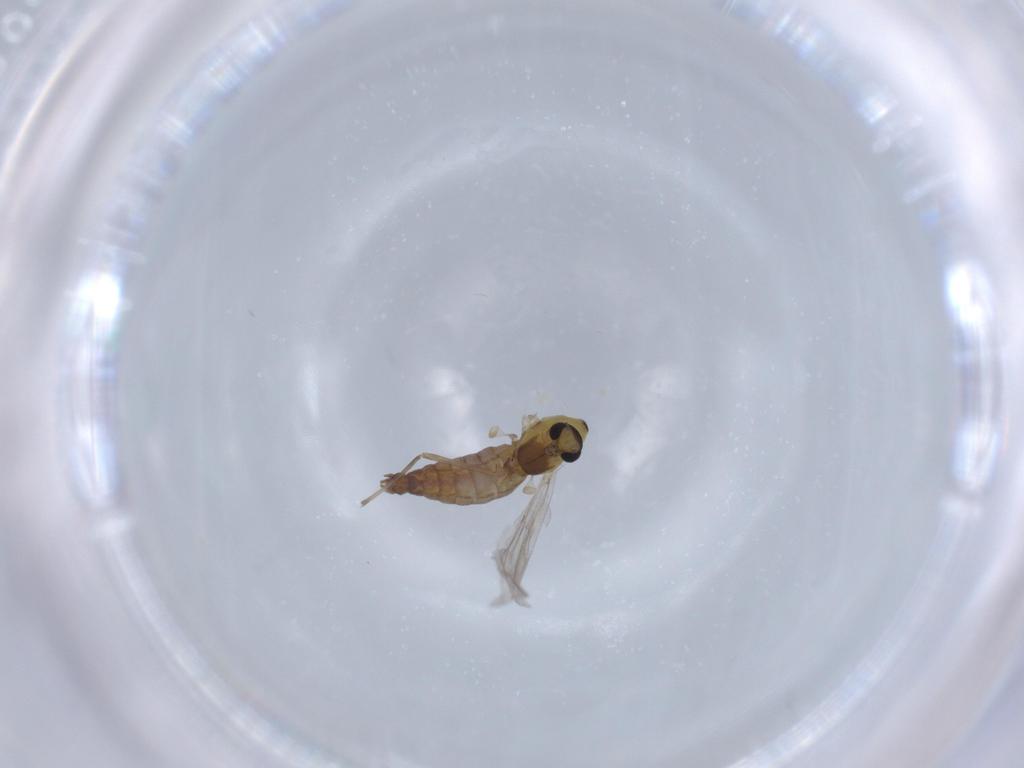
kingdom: Animalia
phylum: Arthropoda
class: Insecta
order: Diptera
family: Chironomidae
